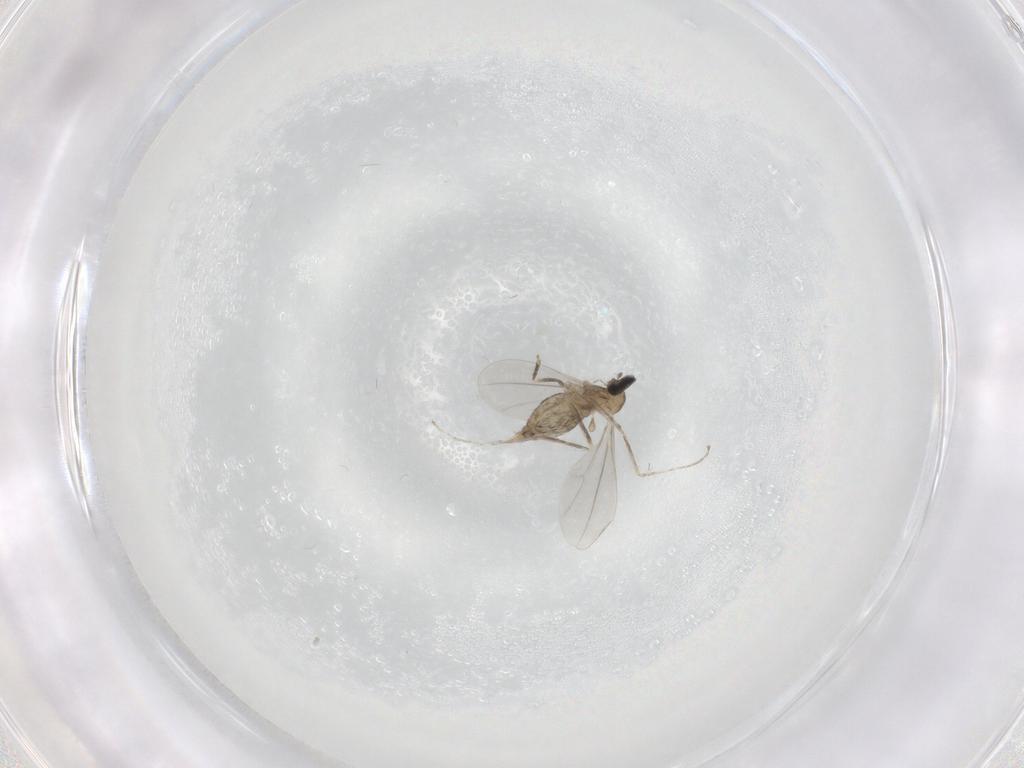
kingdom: Animalia
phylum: Arthropoda
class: Insecta
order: Diptera
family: Cecidomyiidae
